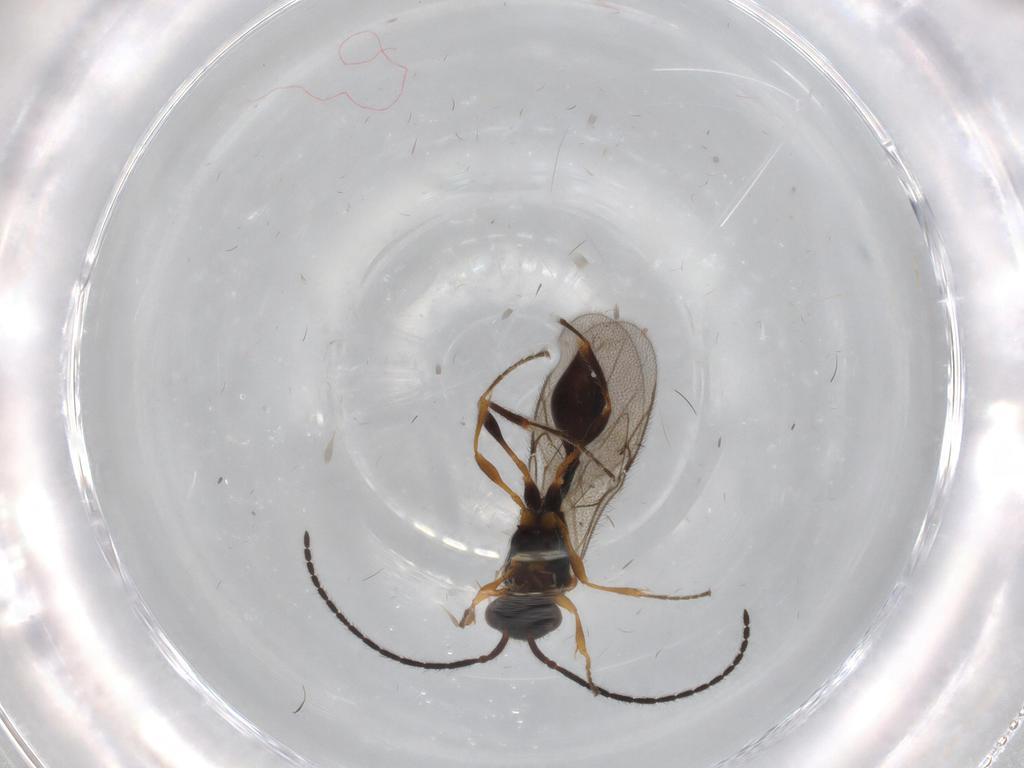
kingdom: Animalia
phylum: Arthropoda
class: Insecta
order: Hymenoptera
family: Diapriidae
